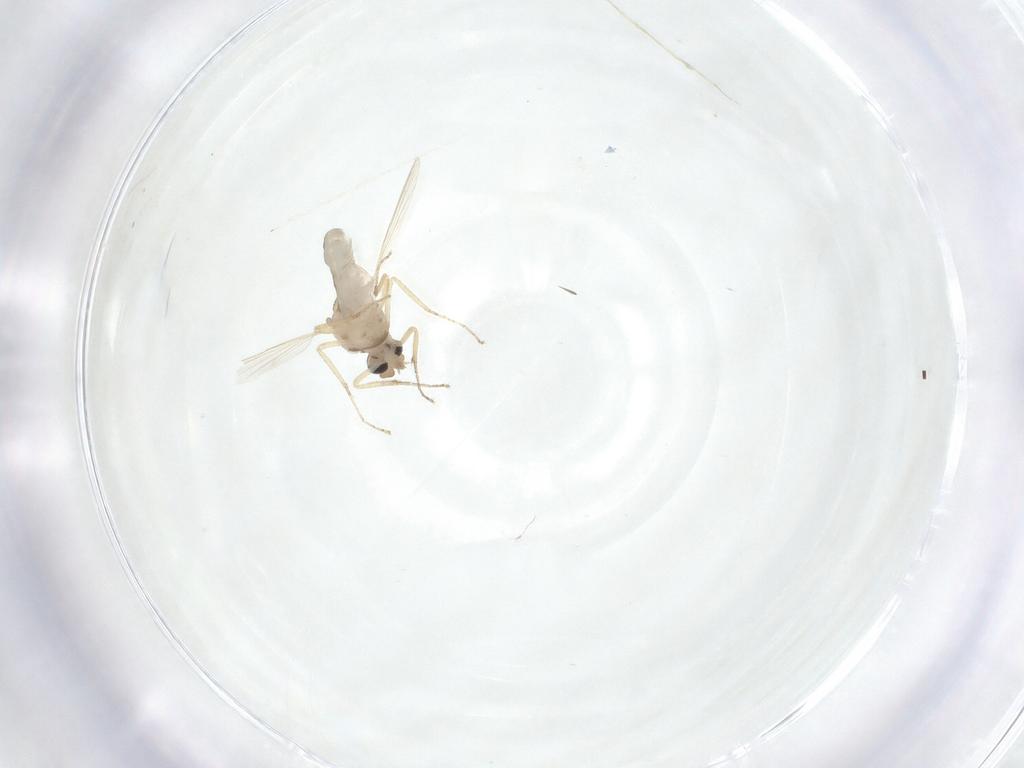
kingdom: Animalia
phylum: Arthropoda
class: Insecta
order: Diptera
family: Ceratopogonidae
